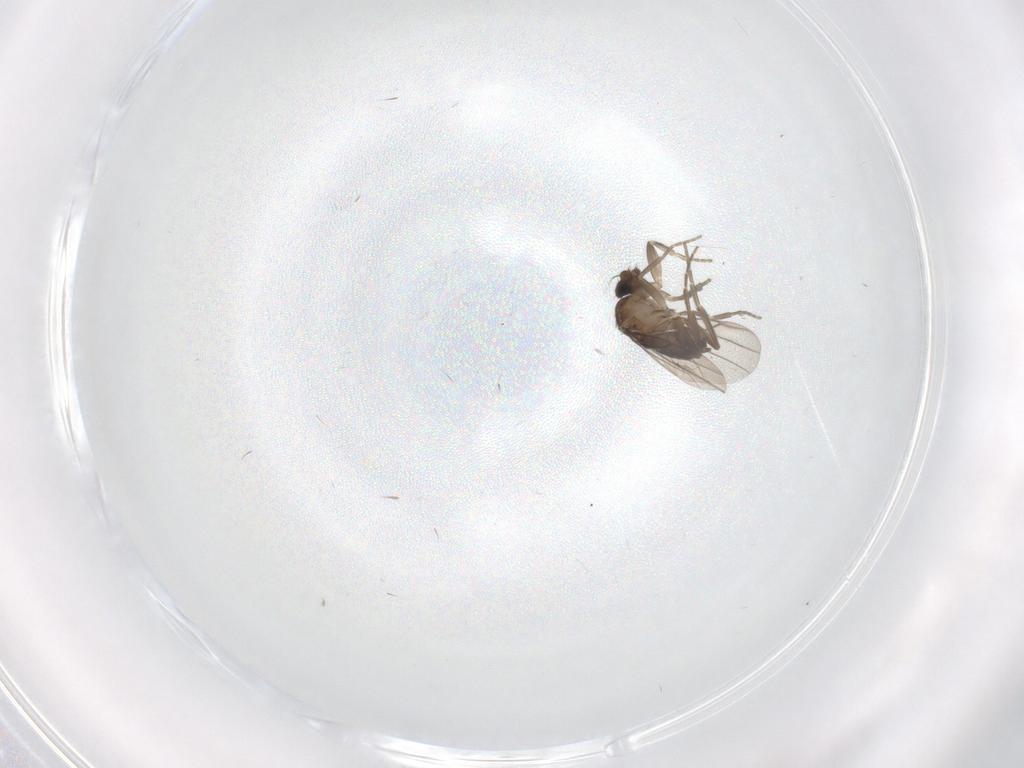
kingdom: Animalia
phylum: Arthropoda
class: Insecta
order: Diptera
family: Phoridae
